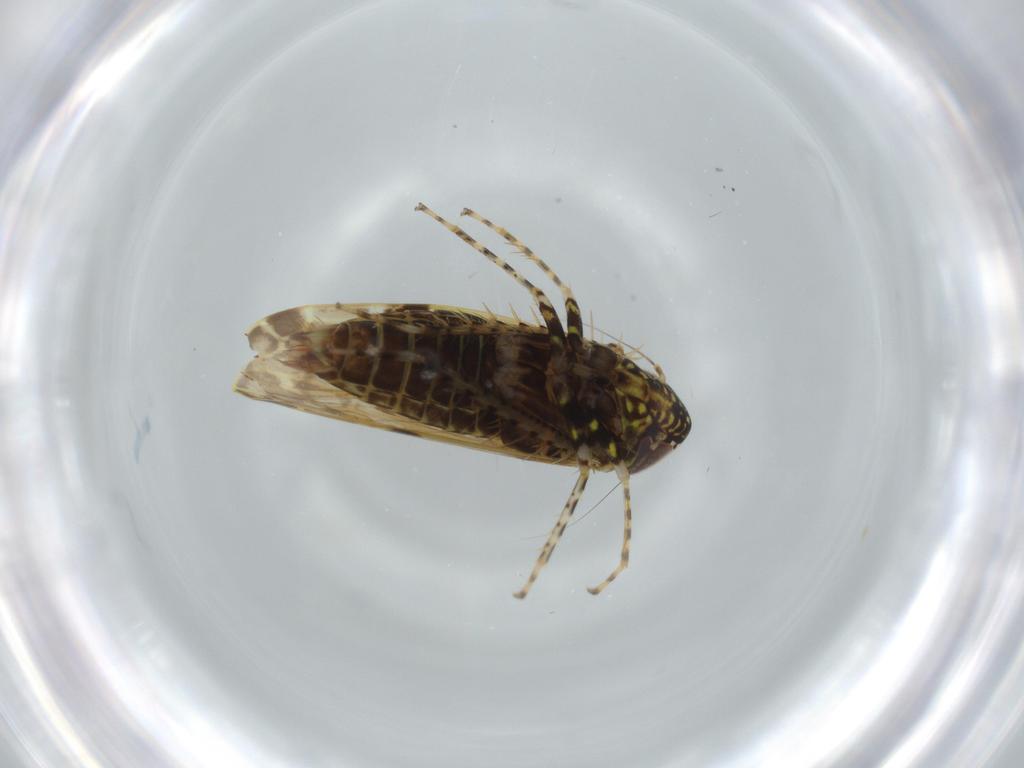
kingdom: Animalia
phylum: Arthropoda
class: Insecta
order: Hemiptera
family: Cicadellidae
